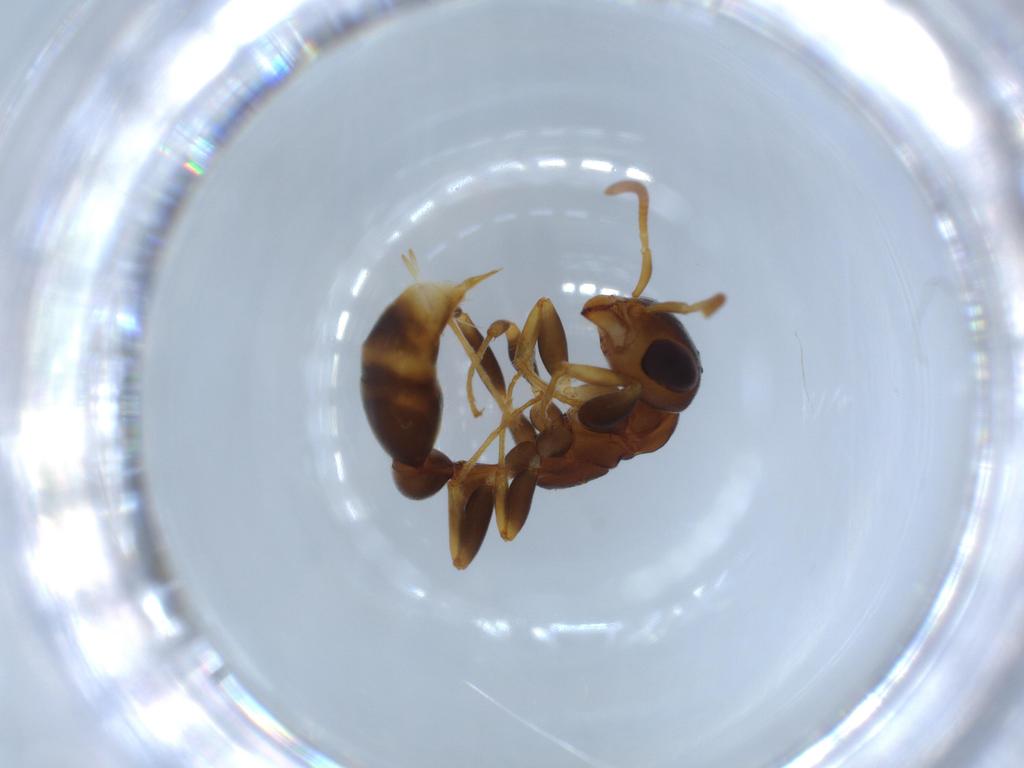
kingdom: Animalia
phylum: Arthropoda
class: Insecta
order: Hymenoptera
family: Formicidae
